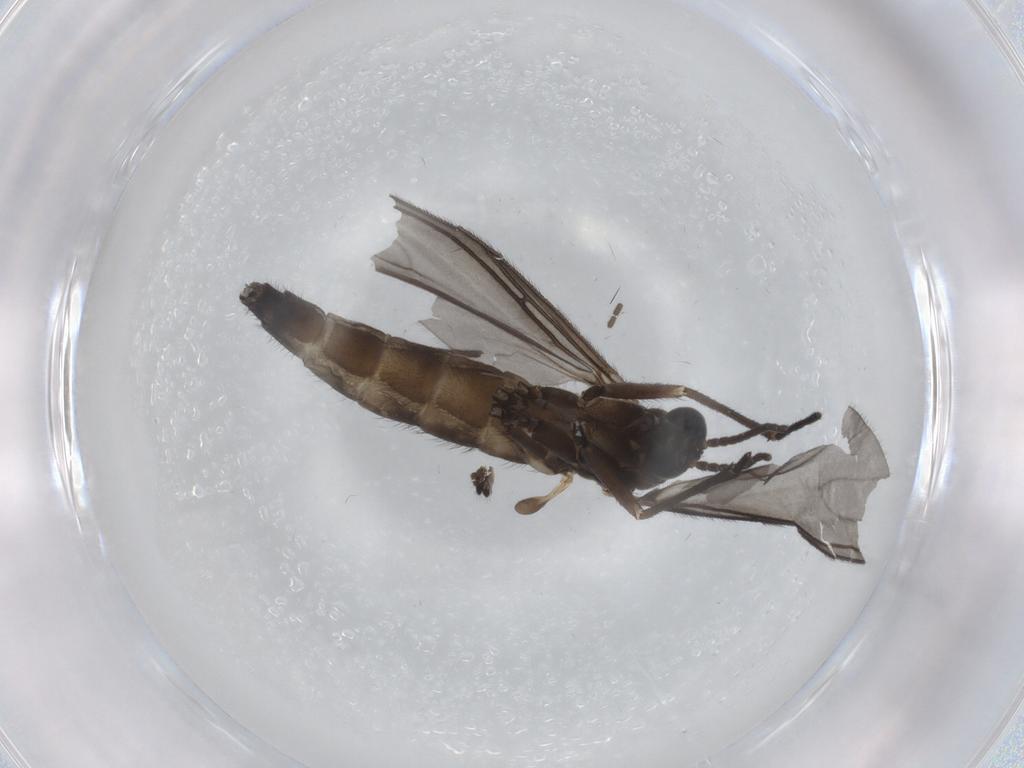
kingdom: Animalia
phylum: Arthropoda
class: Insecta
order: Diptera
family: Sciaridae
